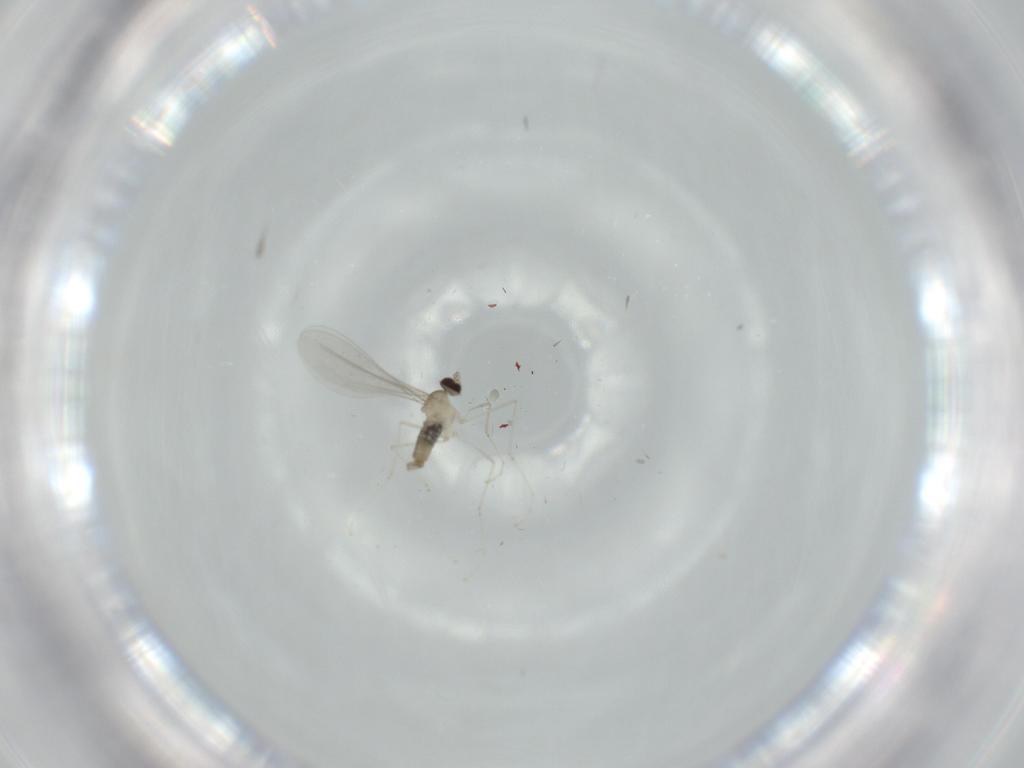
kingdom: Animalia
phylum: Arthropoda
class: Insecta
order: Diptera
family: Cecidomyiidae
